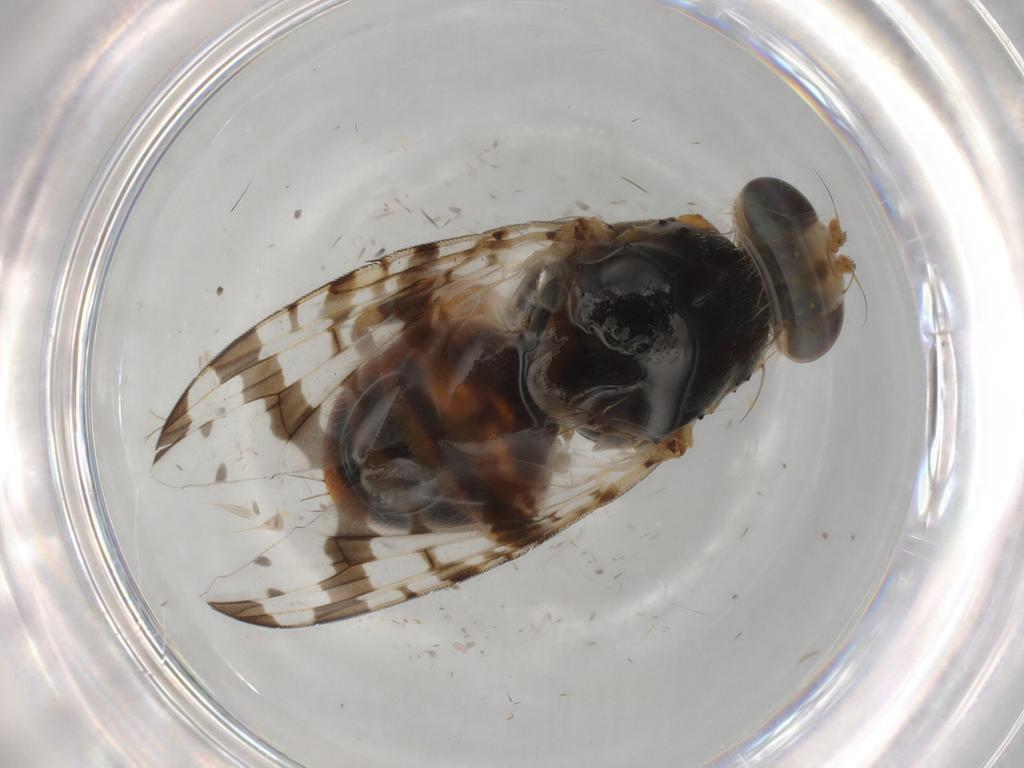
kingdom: Animalia
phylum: Arthropoda
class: Insecta
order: Diptera
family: Tephritidae
